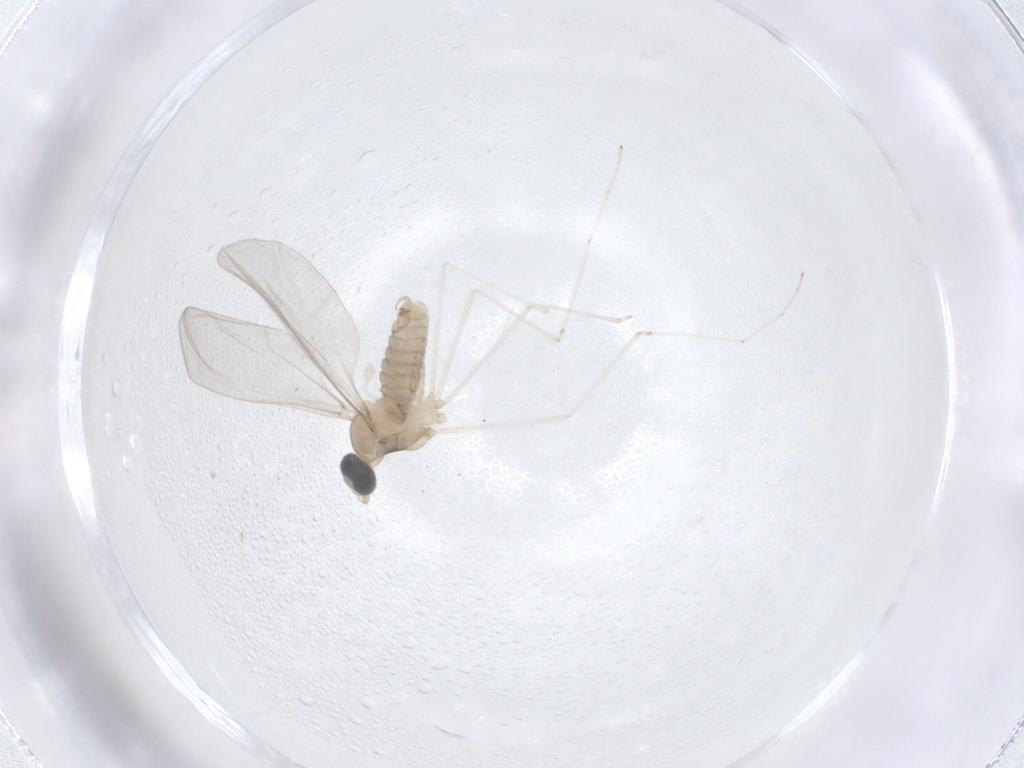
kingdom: Animalia
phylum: Arthropoda
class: Insecta
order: Diptera
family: Cecidomyiidae
